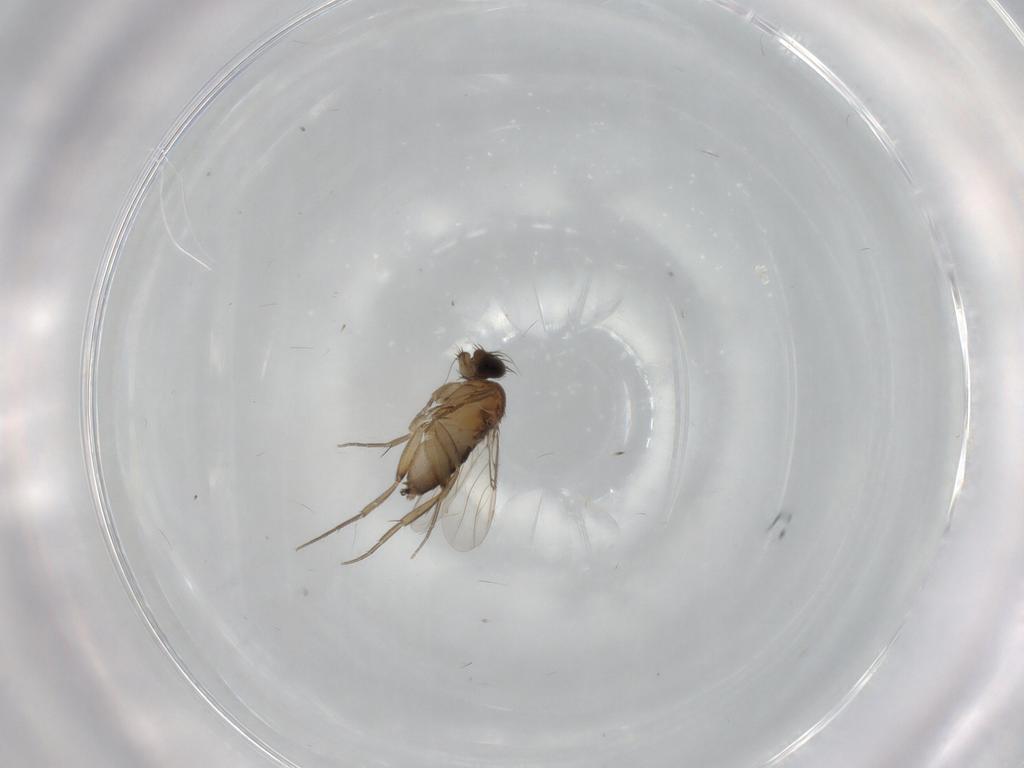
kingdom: Animalia
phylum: Arthropoda
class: Insecta
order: Diptera
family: Phoridae
